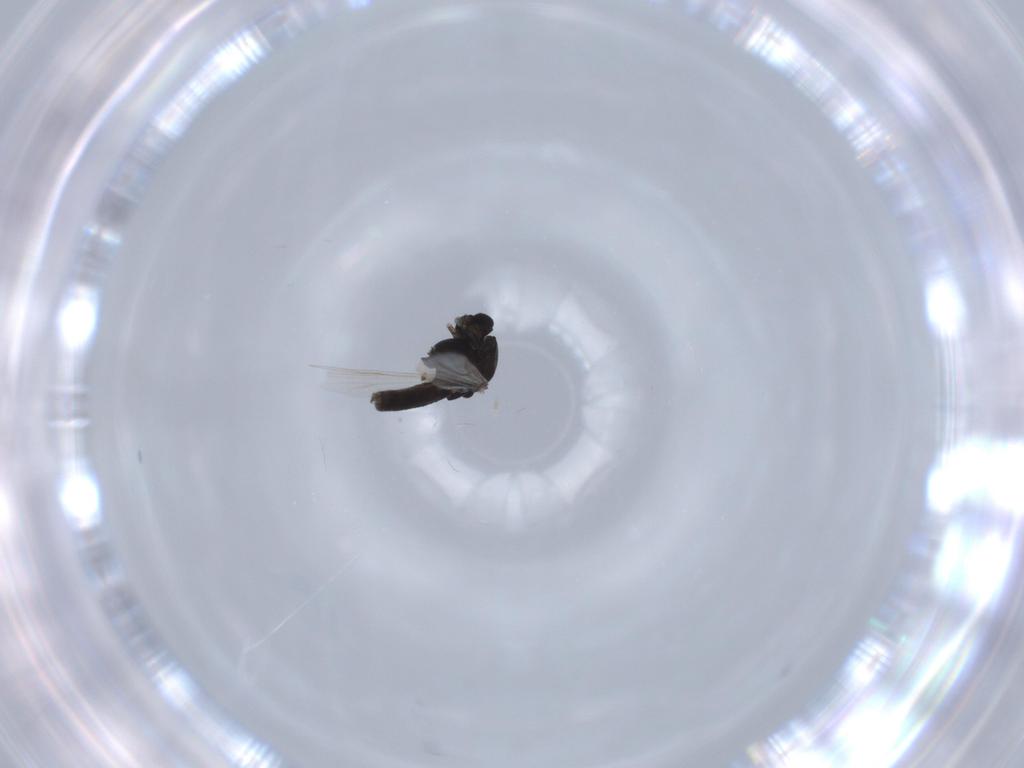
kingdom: Animalia
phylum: Arthropoda
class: Insecta
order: Diptera
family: Chironomidae
